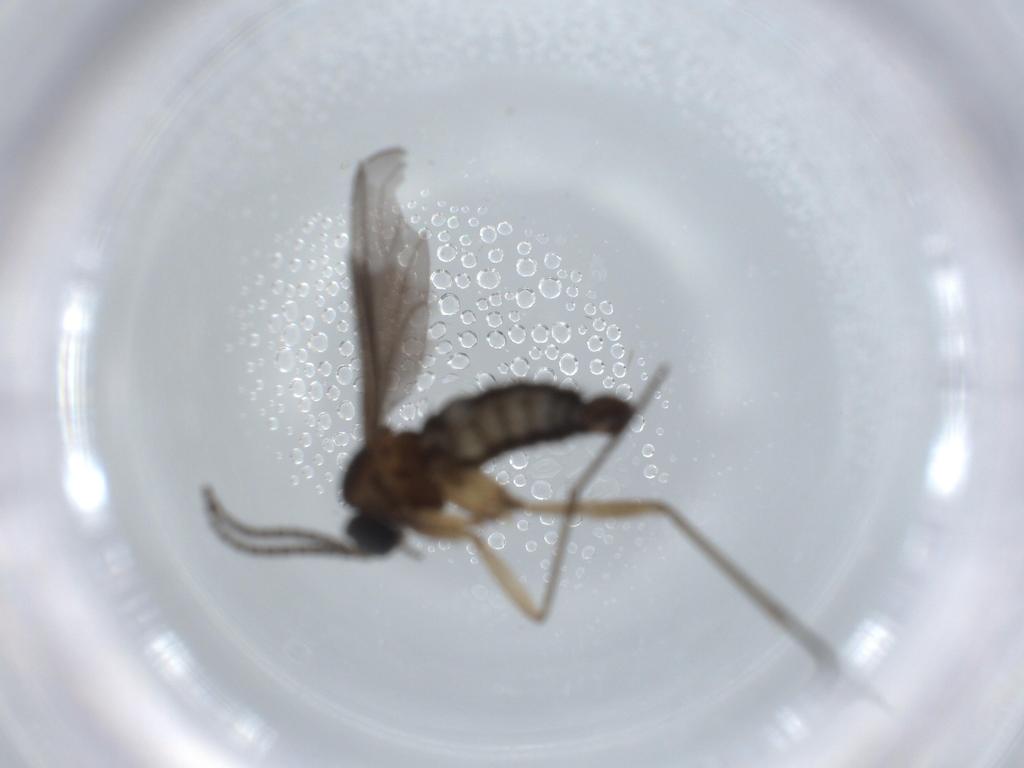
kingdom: Animalia
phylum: Arthropoda
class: Insecta
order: Diptera
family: Sciaridae
